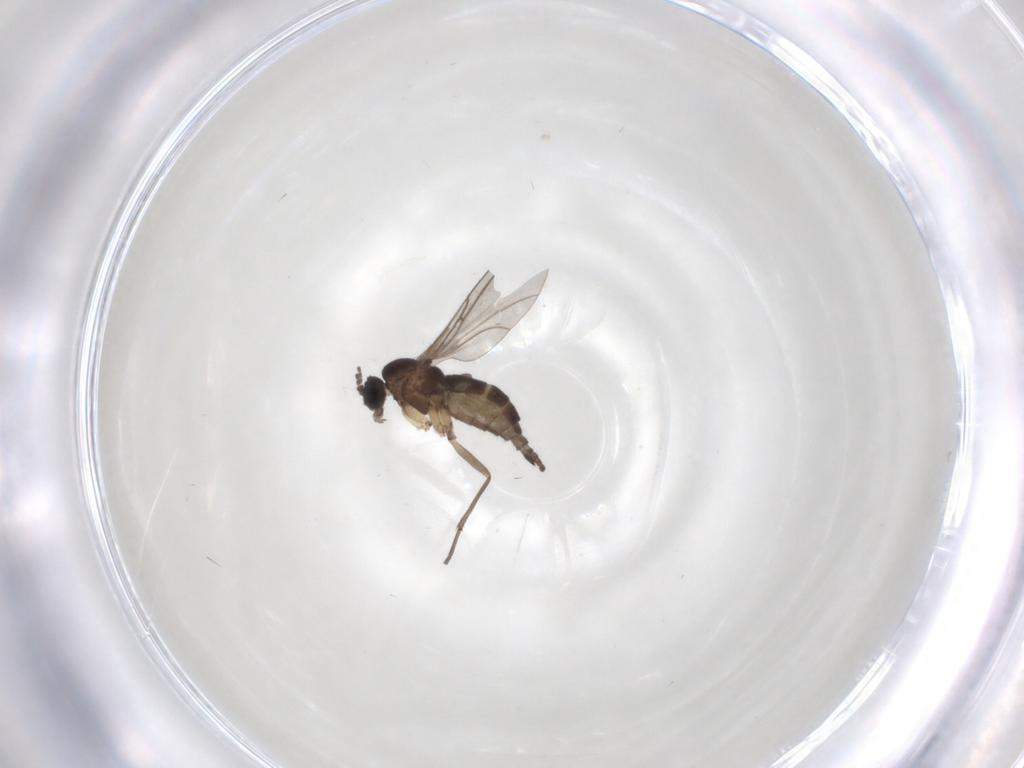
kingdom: Animalia
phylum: Arthropoda
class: Insecta
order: Diptera
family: Sciaridae
